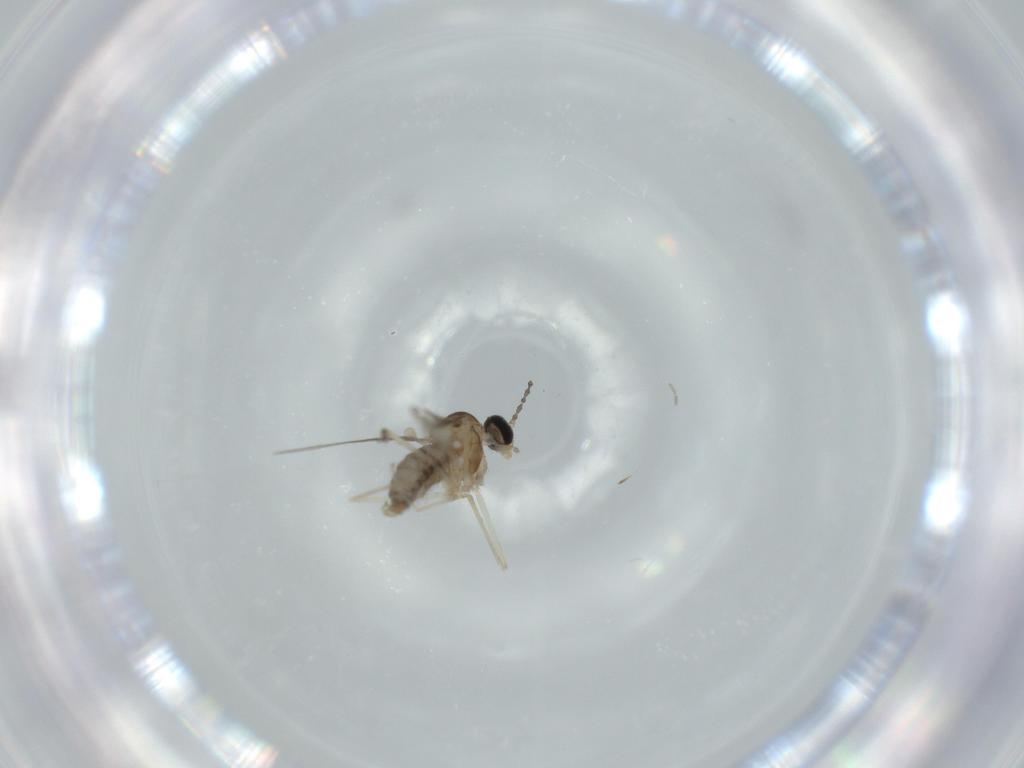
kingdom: Animalia
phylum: Arthropoda
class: Insecta
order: Diptera
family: Cecidomyiidae
